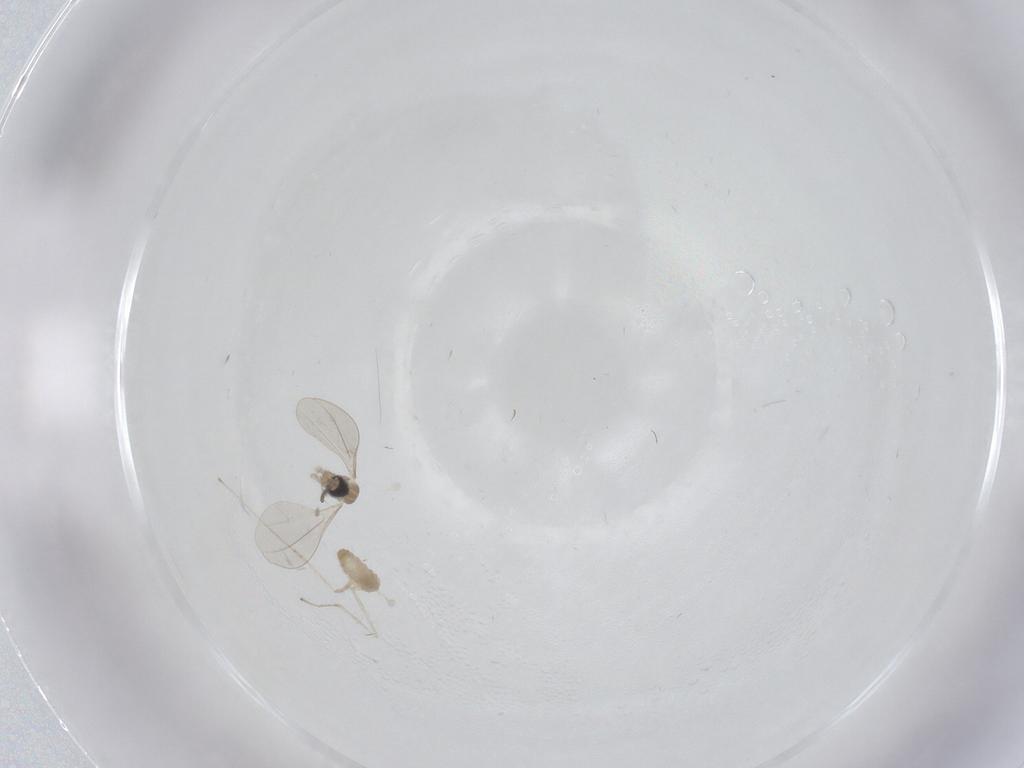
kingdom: Animalia
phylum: Arthropoda
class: Insecta
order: Diptera
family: Cecidomyiidae
